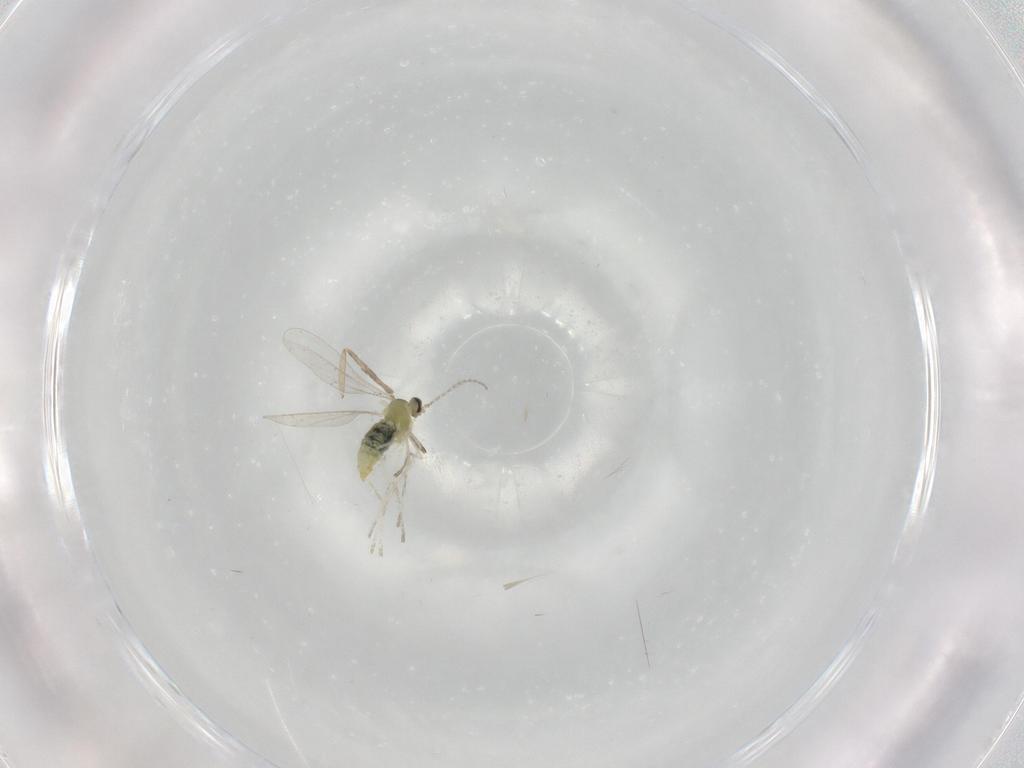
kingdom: Animalia
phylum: Arthropoda
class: Insecta
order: Diptera
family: Cecidomyiidae
